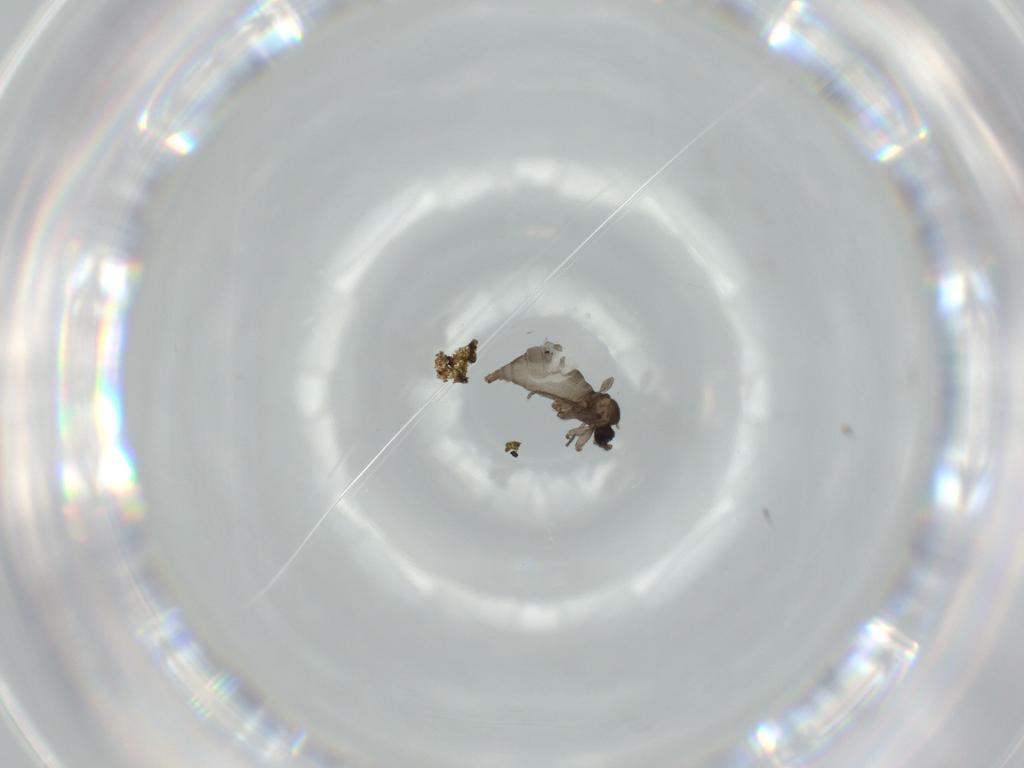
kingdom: Animalia
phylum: Arthropoda
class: Insecta
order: Diptera
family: Sciaridae
